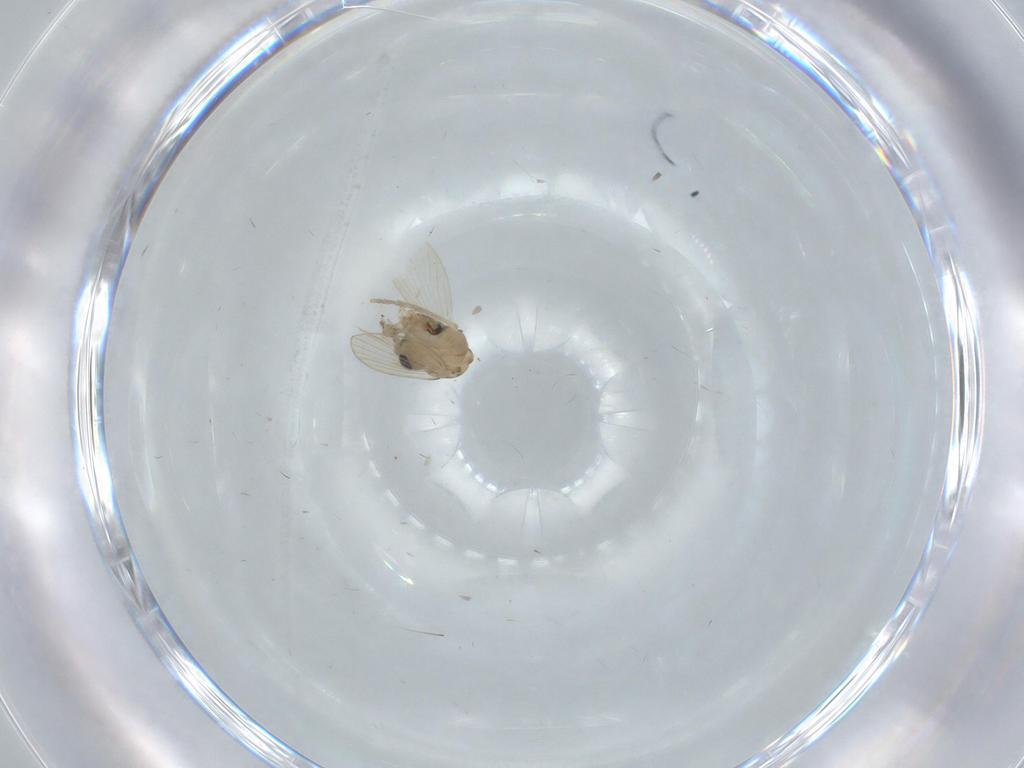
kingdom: Animalia
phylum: Arthropoda
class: Insecta
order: Diptera
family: Psychodidae
